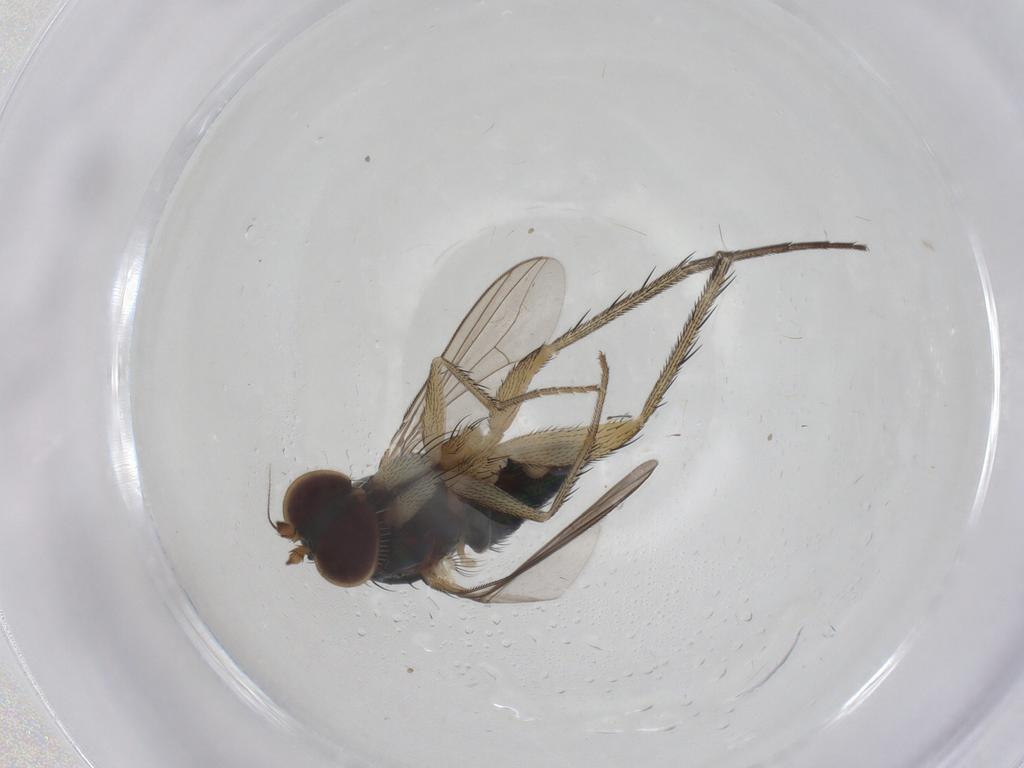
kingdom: Animalia
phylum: Arthropoda
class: Insecta
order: Diptera
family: Dolichopodidae
